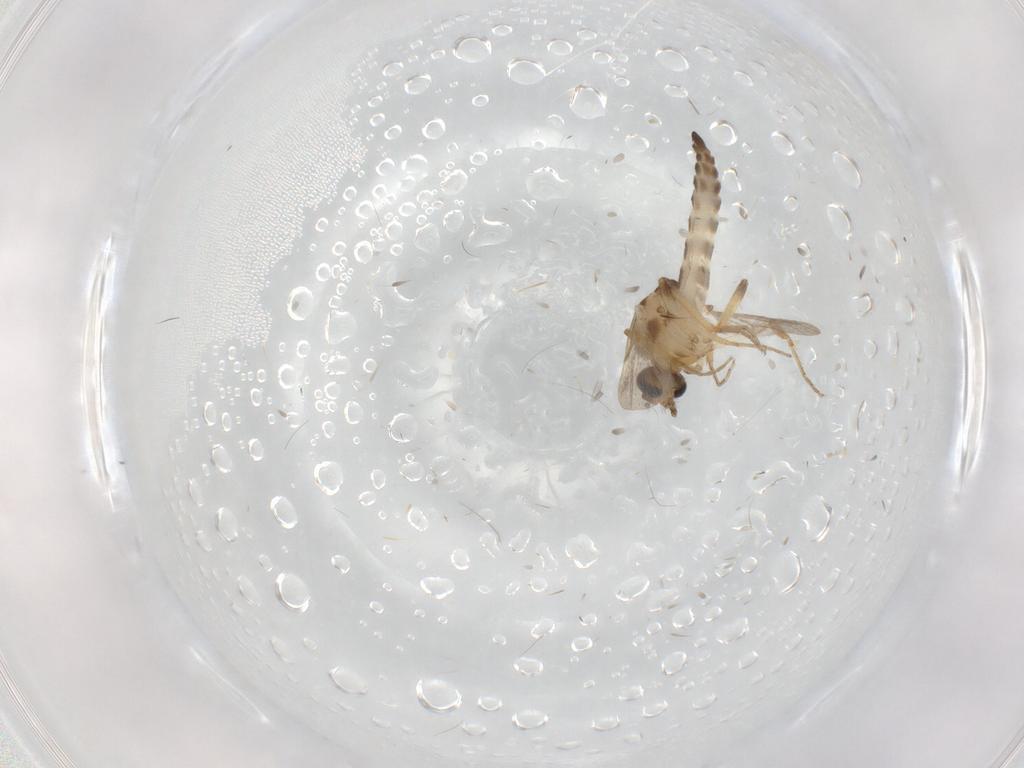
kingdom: Animalia
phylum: Arthropoda
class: Insecta
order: Diptera
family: Ceratopogonidae
